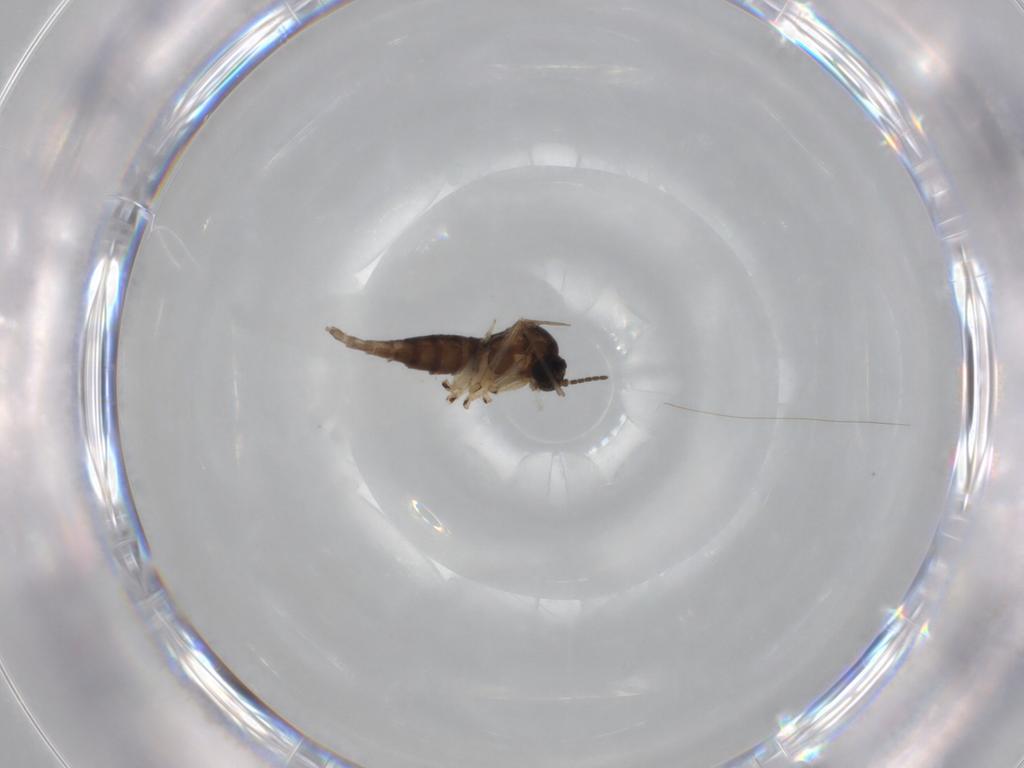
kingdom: Animalia
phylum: Arthropoda
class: Insecta
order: Diptera
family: Sciaridae
